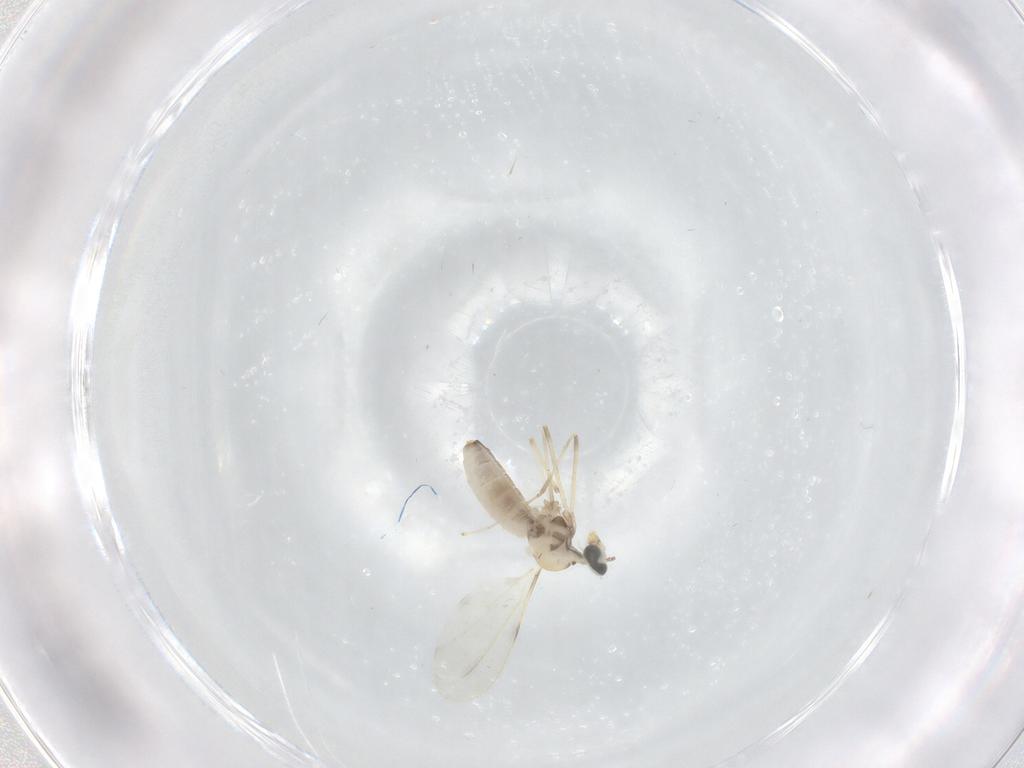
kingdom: Animalia
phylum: Arthropoda
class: Insecta
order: Diptera
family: Cecidomyiidae
